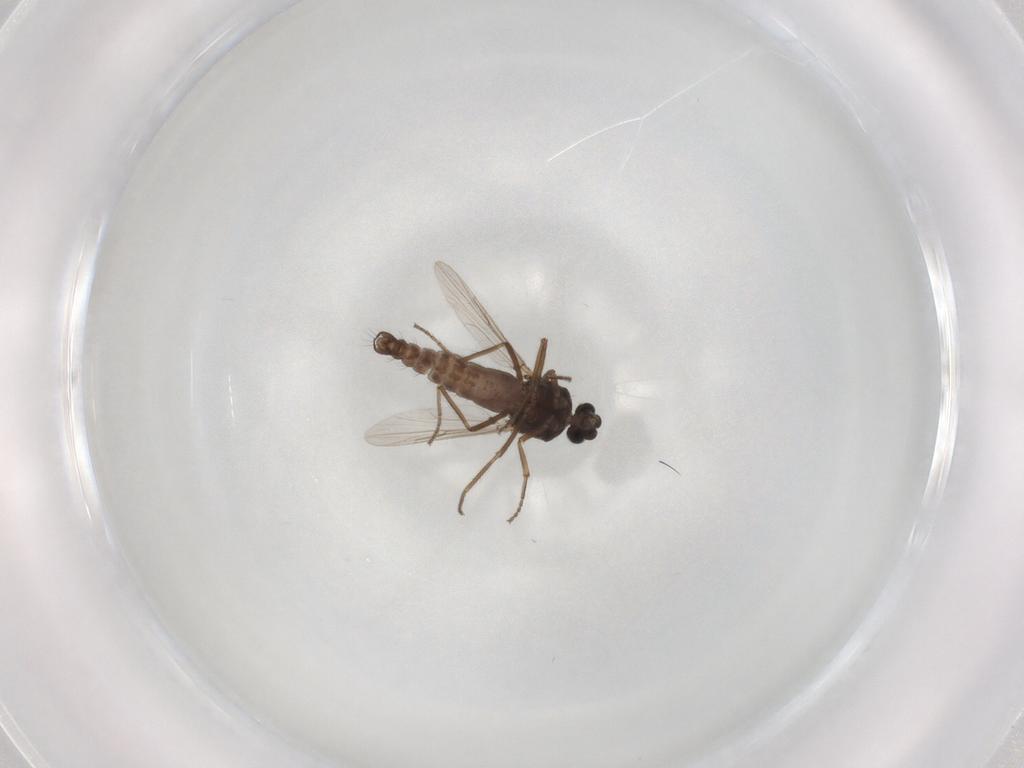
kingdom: Animalia
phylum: Arthropoda
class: Insecta
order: Diptera
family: Ceratopogonidae
